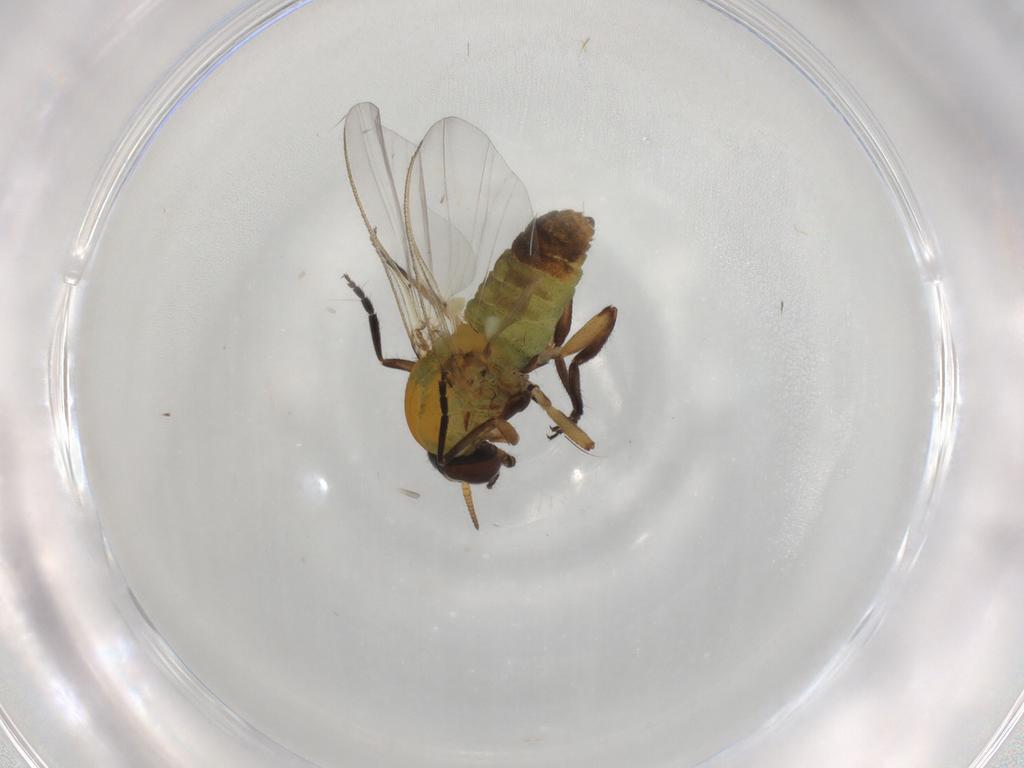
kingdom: Animalia
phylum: Arthropoda
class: Insecta
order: Diptera
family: Simuliidae
